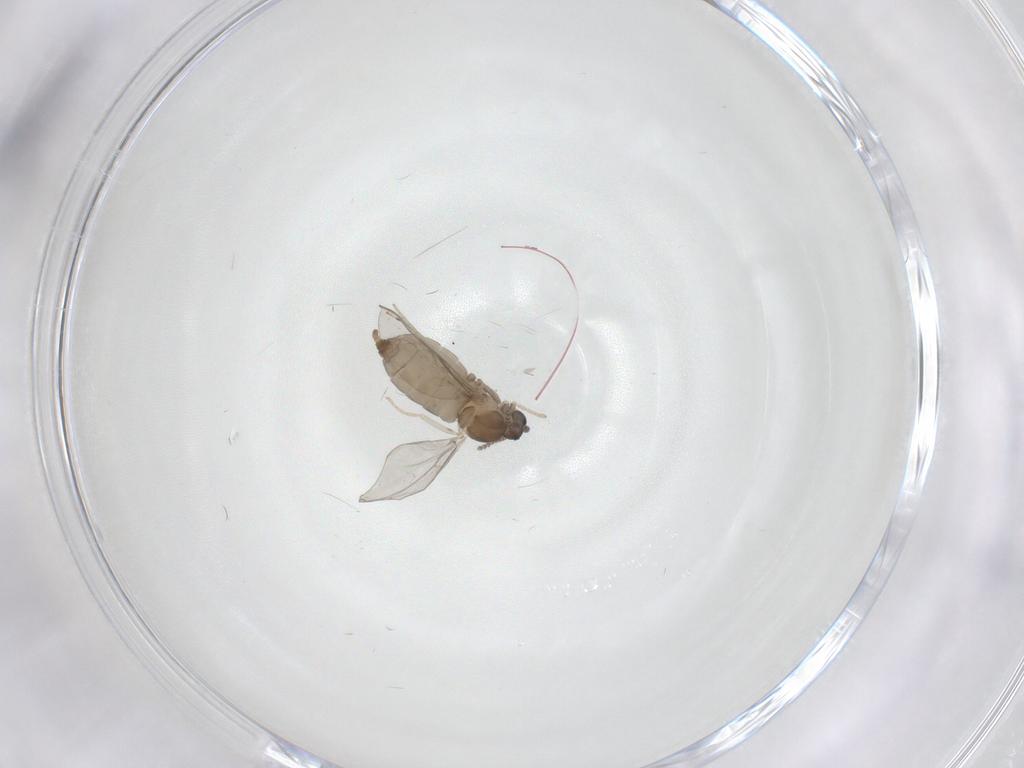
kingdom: Animalia
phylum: Arthropoda
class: Insecta
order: Diptera
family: Cecidomyiidae
